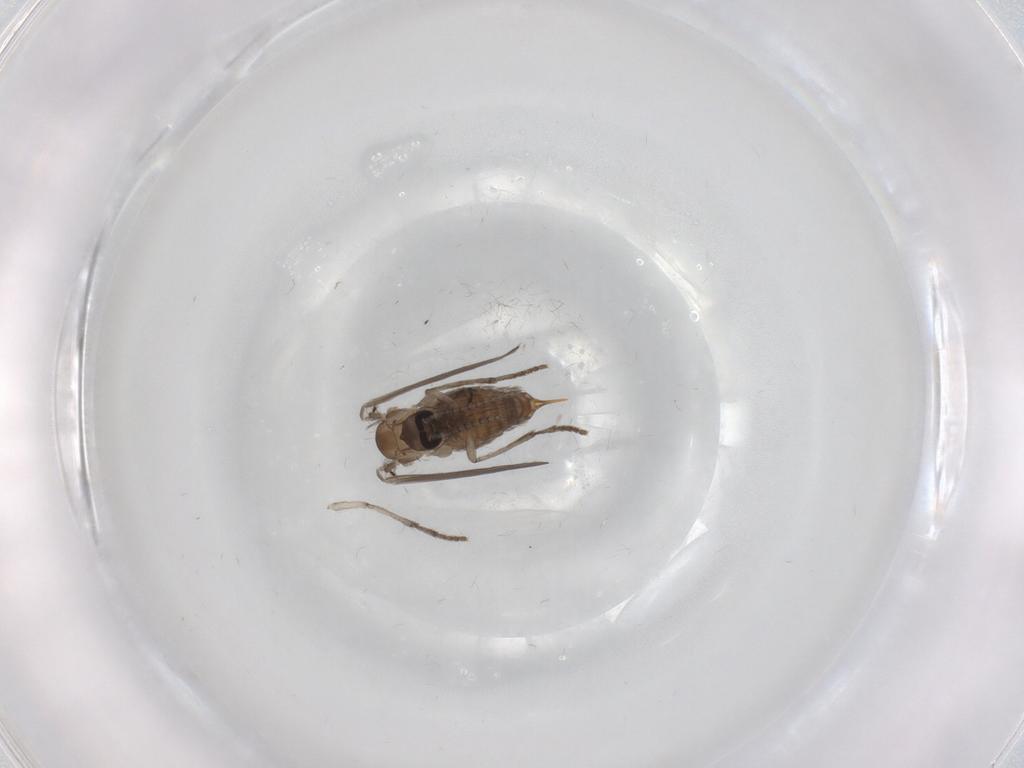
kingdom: Animalia
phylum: Arthropoda
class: Insecta
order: Diptera
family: Psychodidae
